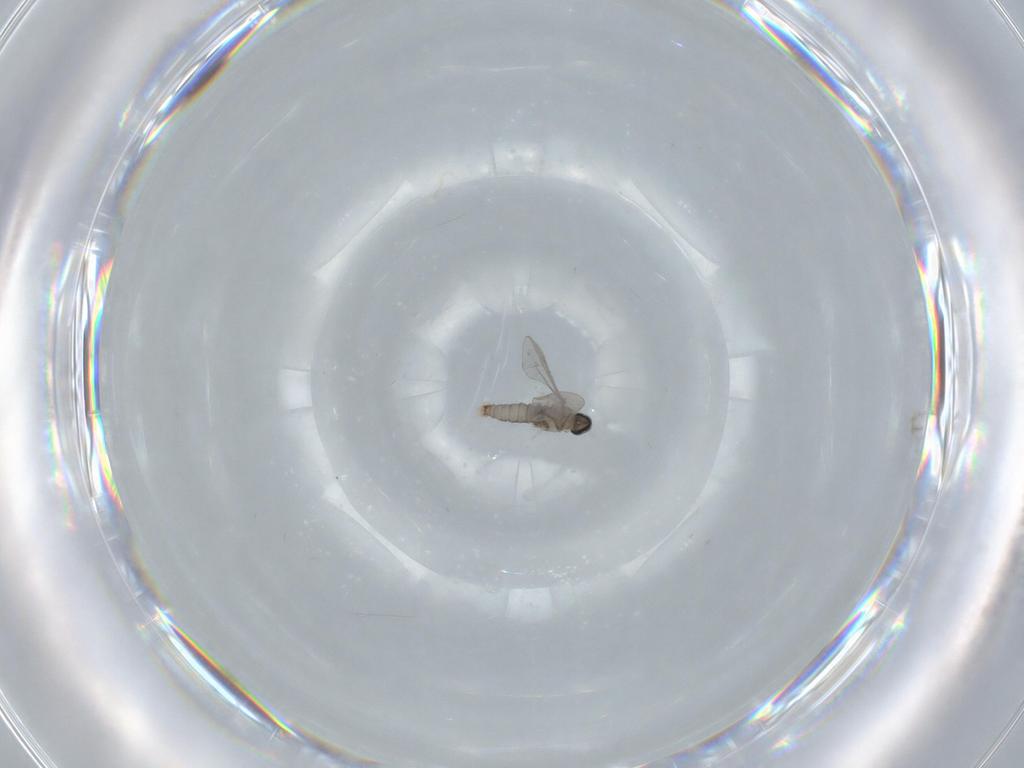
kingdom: Animalia
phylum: Arthropoda
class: Insecta
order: Diptera
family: Cecidomyiidae
